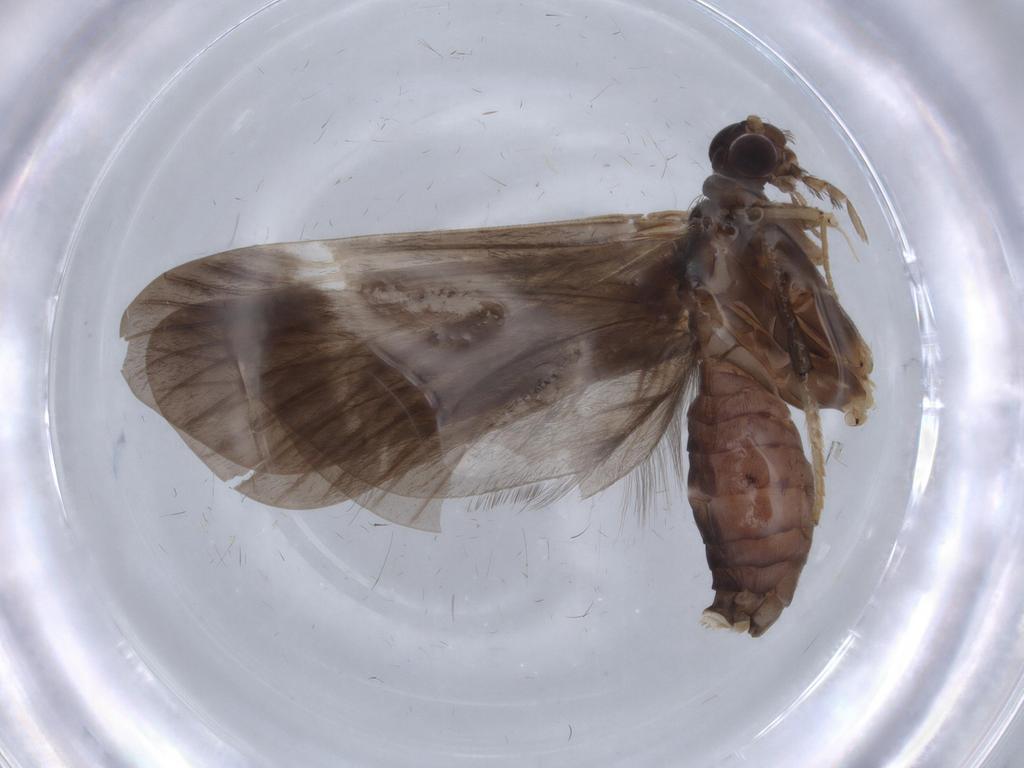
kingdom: Animalia
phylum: Arthropoda
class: Insecta
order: Trichoptera
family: Hydropsychidae
